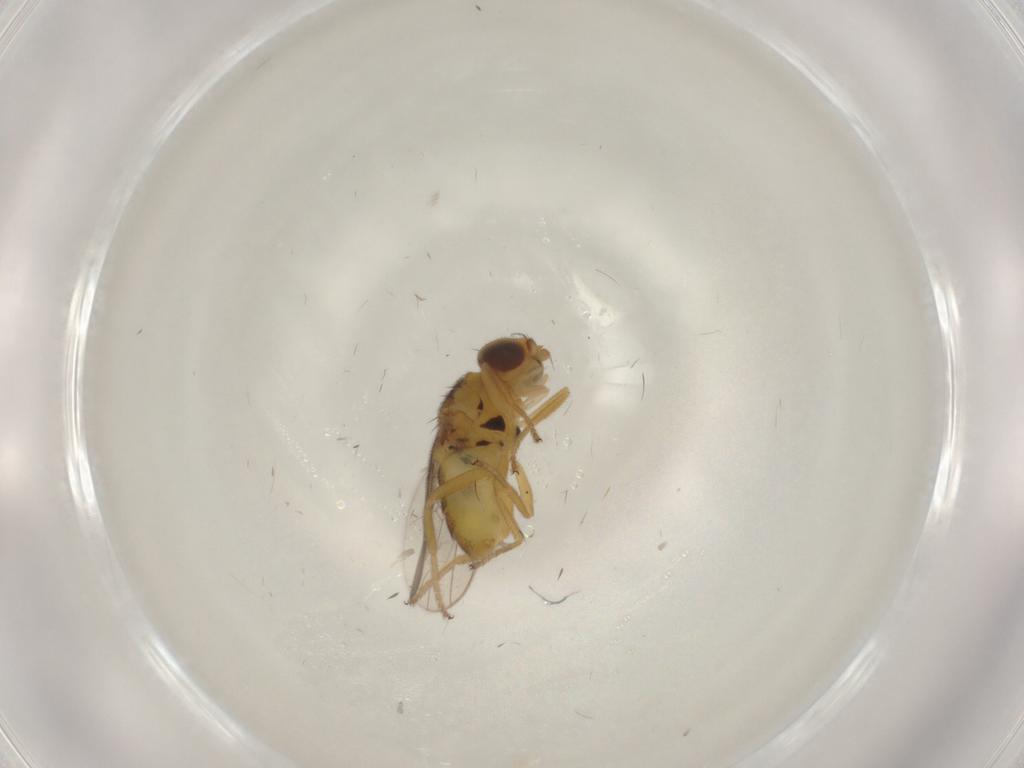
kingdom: Animalia
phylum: Arthropoda
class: Insecta
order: Diptera
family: Chloropidae
